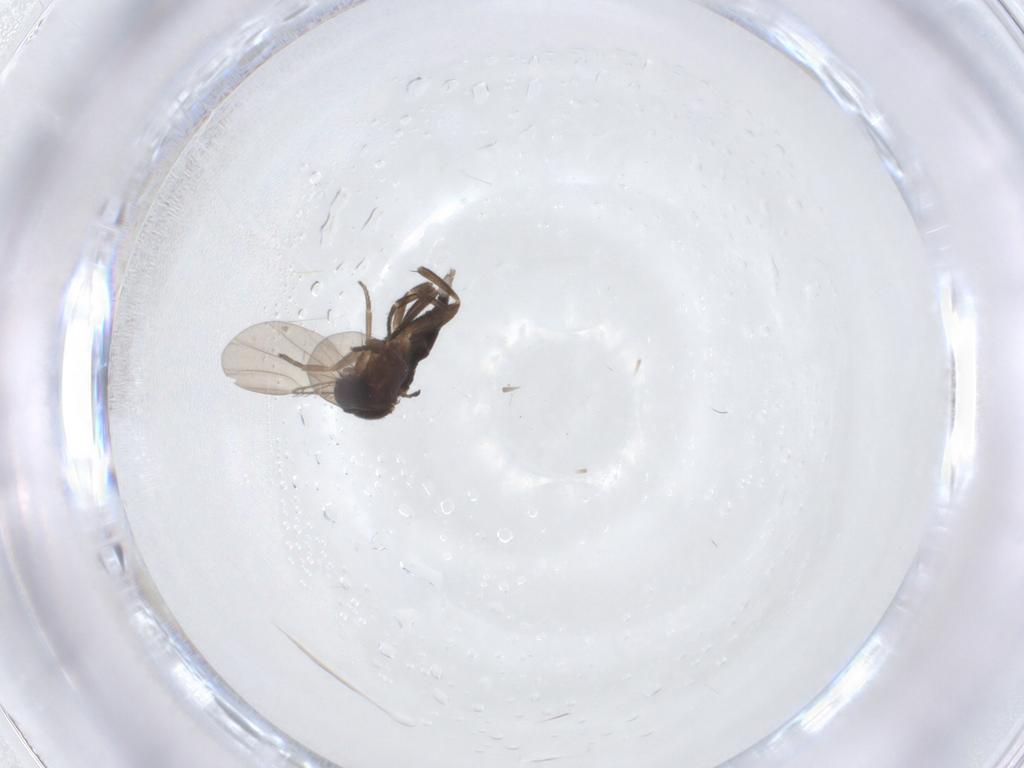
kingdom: Animalia
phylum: Arthropoda
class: Insecta
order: Diptera
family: Phoridae
